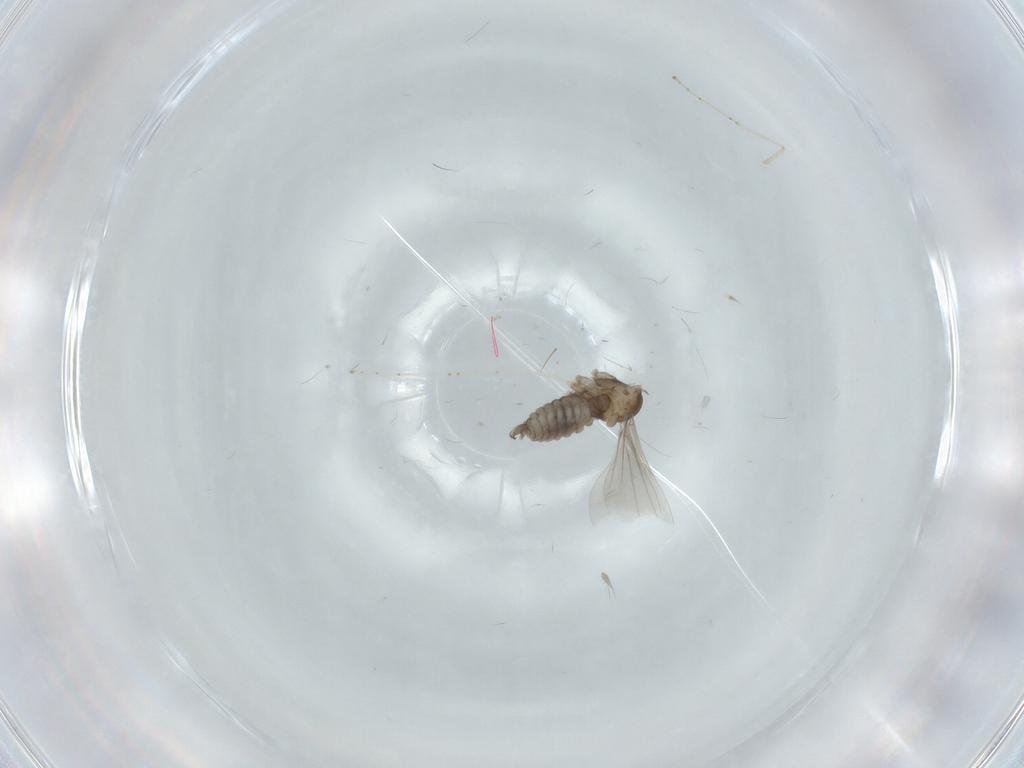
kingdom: Animalia
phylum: Arthropoda
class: Insecta
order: Diptera
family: Cecidomyiidae
